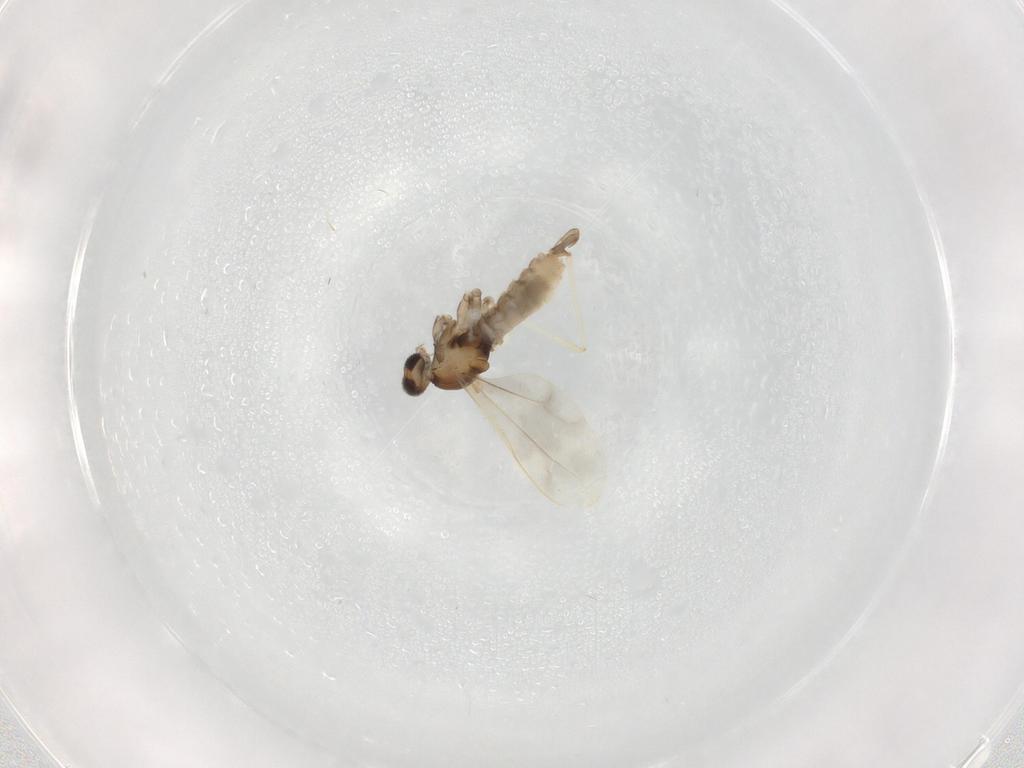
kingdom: Animalia
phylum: Arthropoda
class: Insecta
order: Diptera
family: Cecidomyiidae
